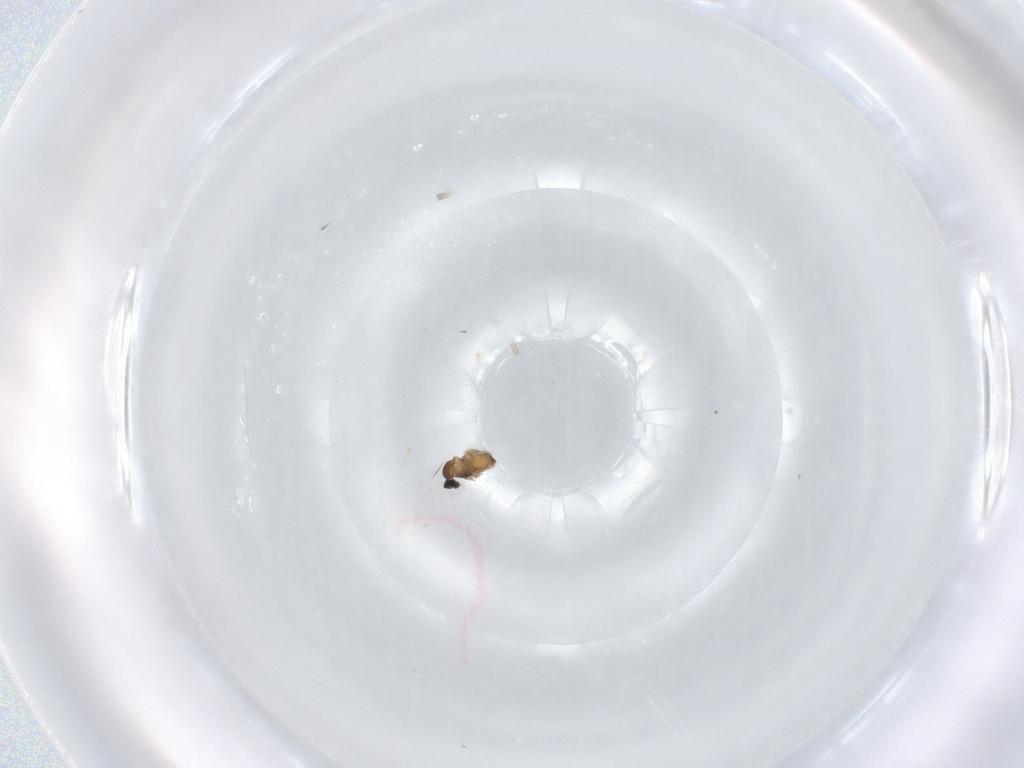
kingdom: Animalia
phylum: Arthropoda
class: Insecta
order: Diptera
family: Cecidomyiidae
